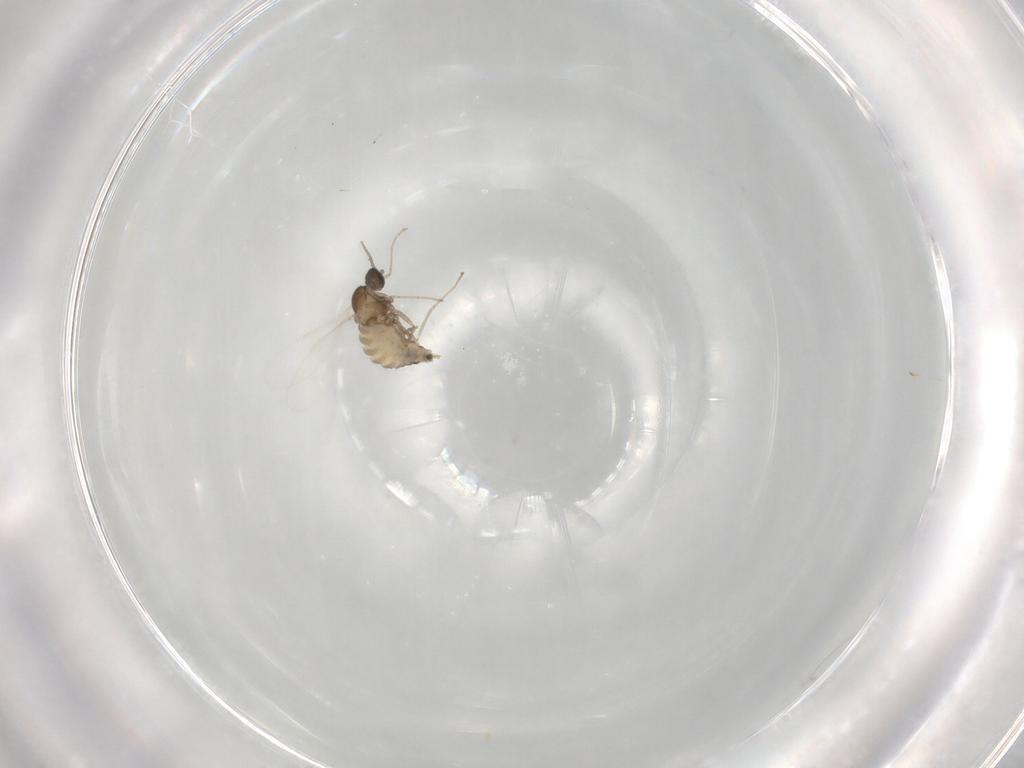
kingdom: Animalia
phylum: Arthropoda
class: Insecta
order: Diptera
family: Cecidomyiidae
